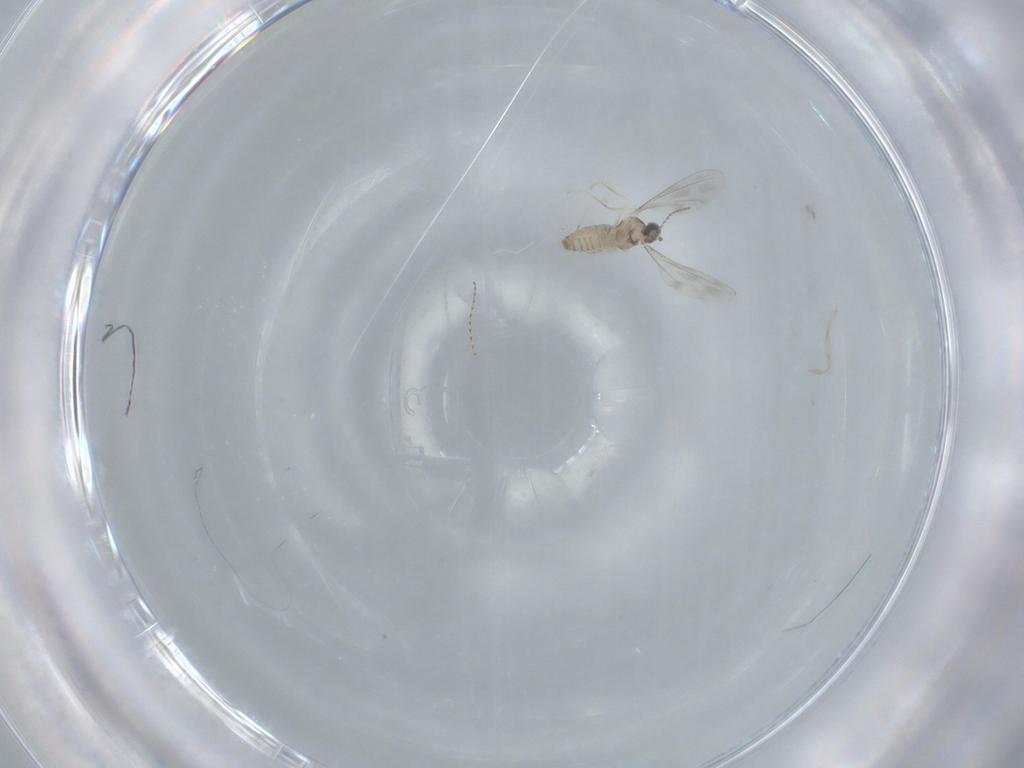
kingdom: Animalia
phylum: Arthropoda
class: Insecta
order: Diptera
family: Cecidomyiidae
